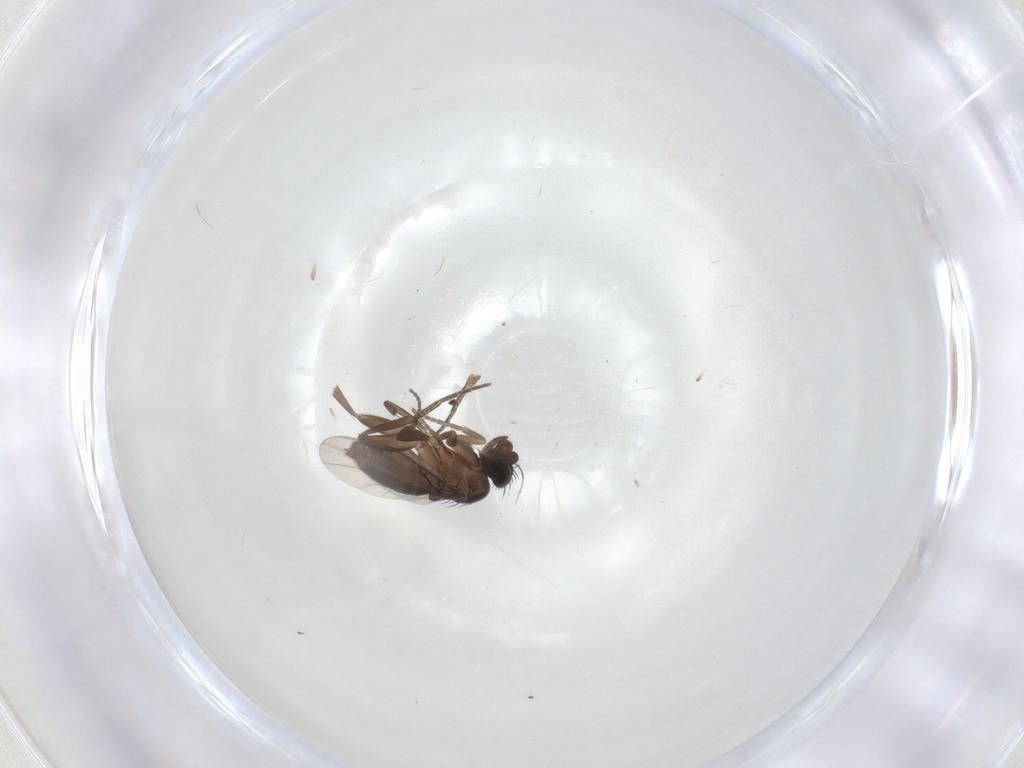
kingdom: Animalia
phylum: Arthropoda
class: Insecta
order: Diptera
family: Phoridae
